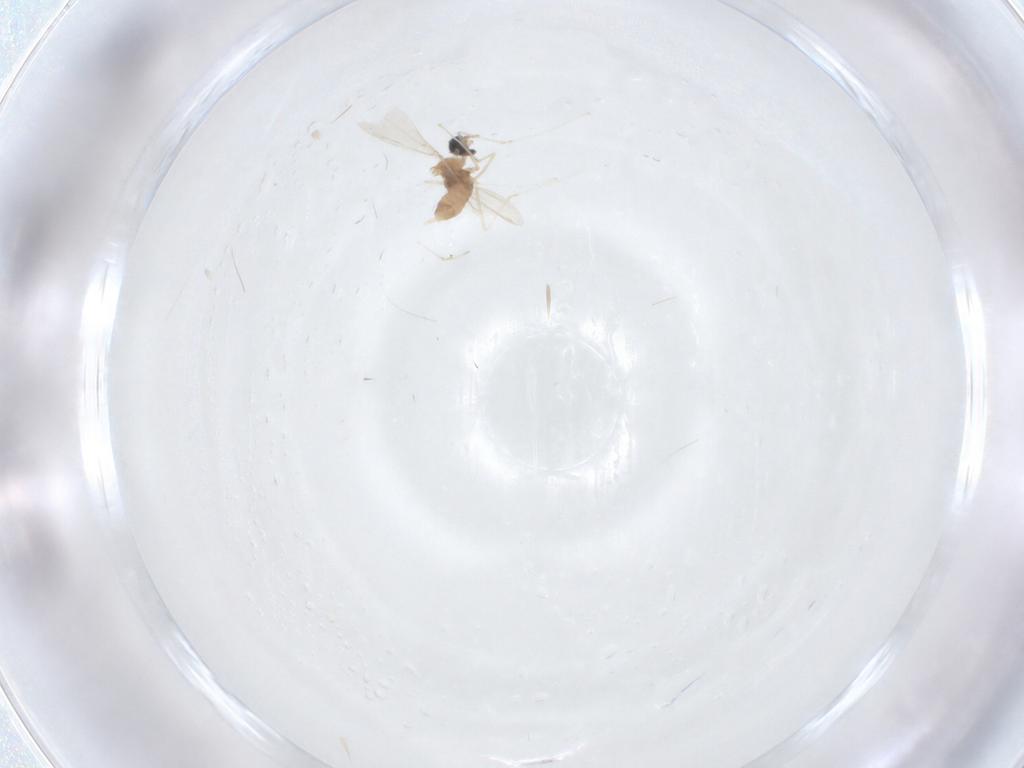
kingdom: Animalia
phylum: Arthropoda
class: Insecta
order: Diptera
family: Cecidomyiidae
